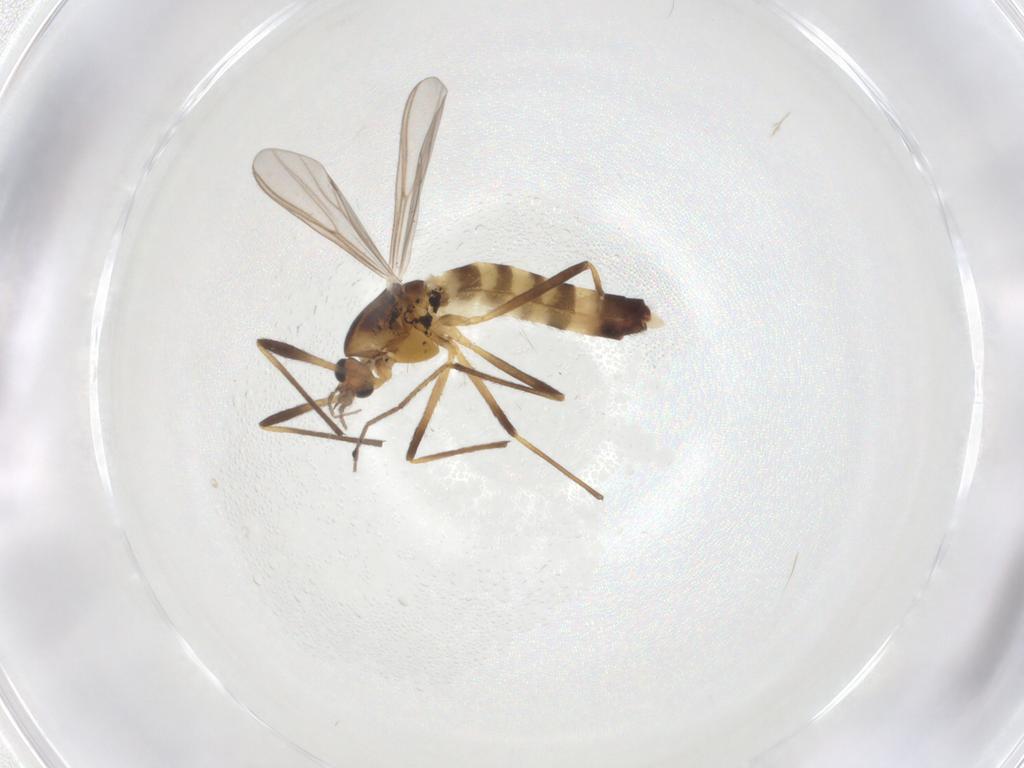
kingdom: Animalia
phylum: Arthropoda
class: Insecta
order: Diptera
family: Chironomidae
